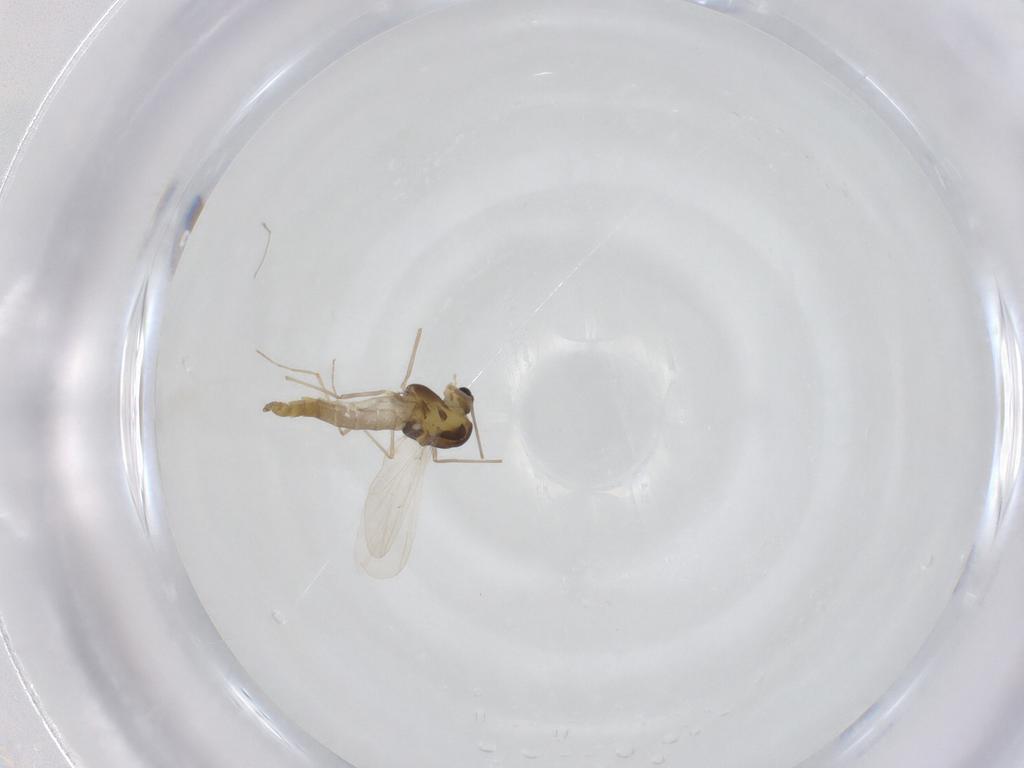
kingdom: Animalia
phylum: Arthropoda
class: Insecta
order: Diptera
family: Chironomidae
